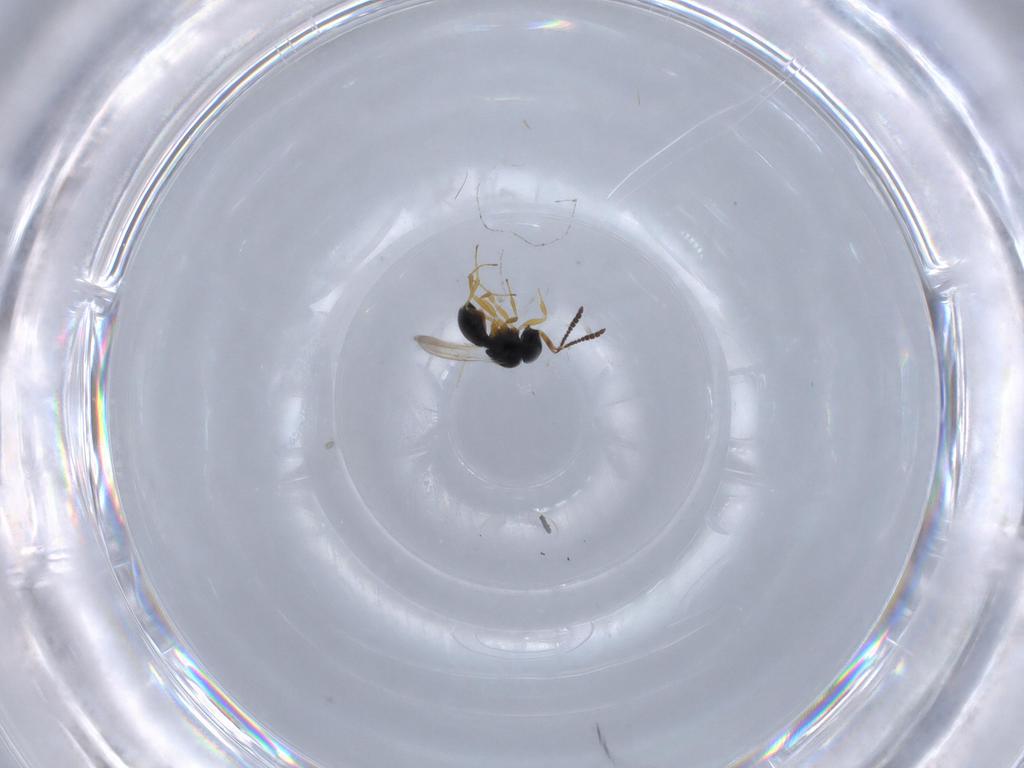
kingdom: Animalia
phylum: Arthropoda
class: Insecta
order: Hymenoptera
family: Scelionidae
